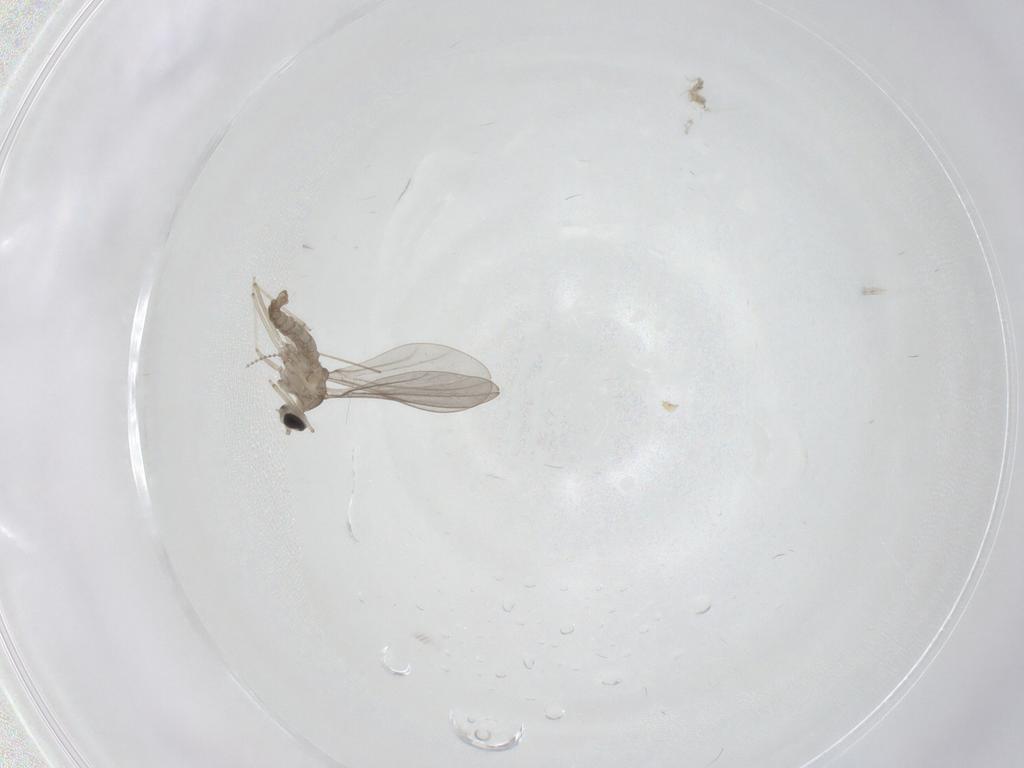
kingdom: Animalia
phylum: Arthropoda
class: Insecta
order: Diptera
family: Cecidomyiidae
